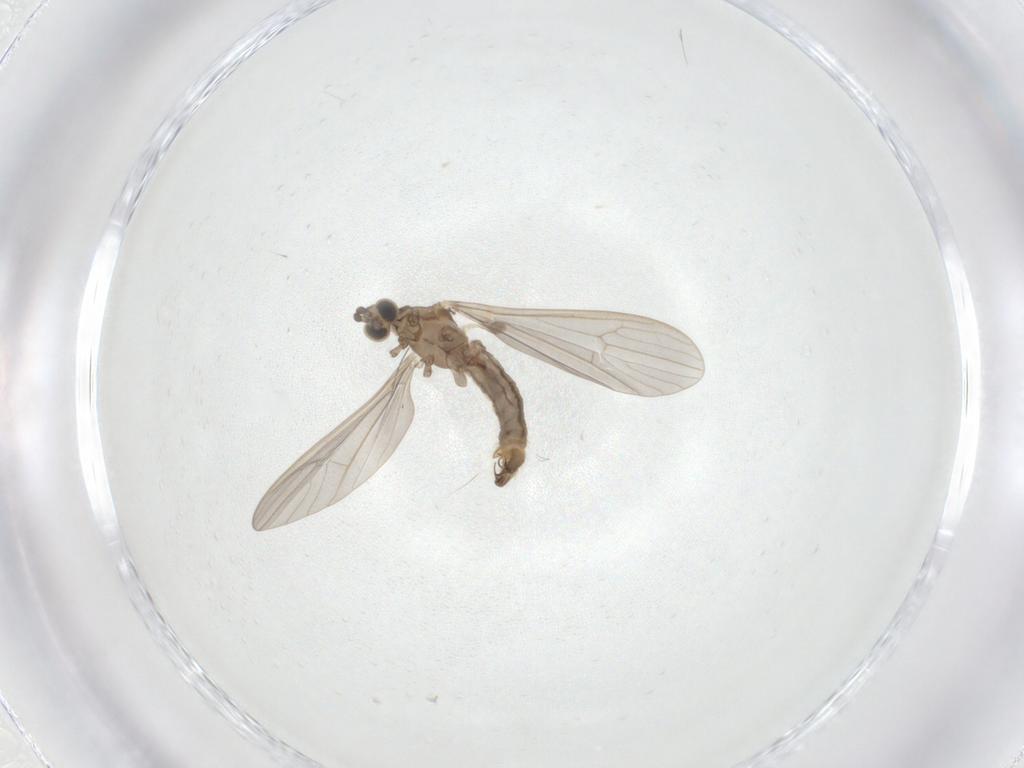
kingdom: Animalia
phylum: Arthropoda
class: Insecta
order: Diptera
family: Limoniidae
